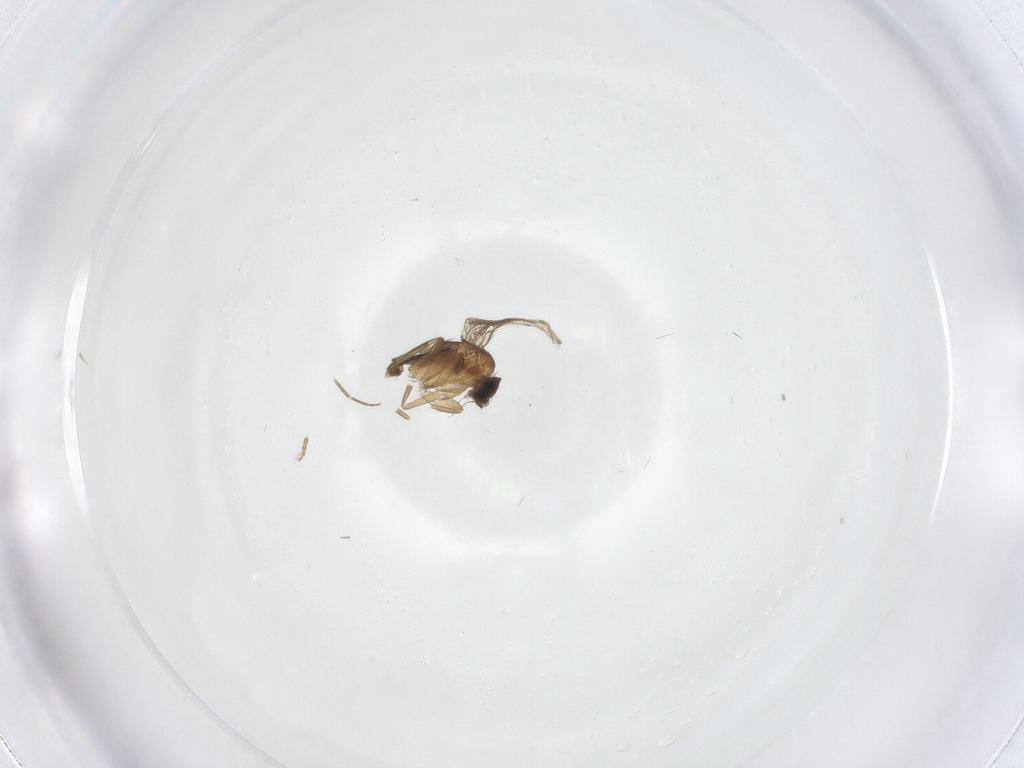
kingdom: Animalia
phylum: Arthropoda
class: Insecta
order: Diptera
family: Phoridae
